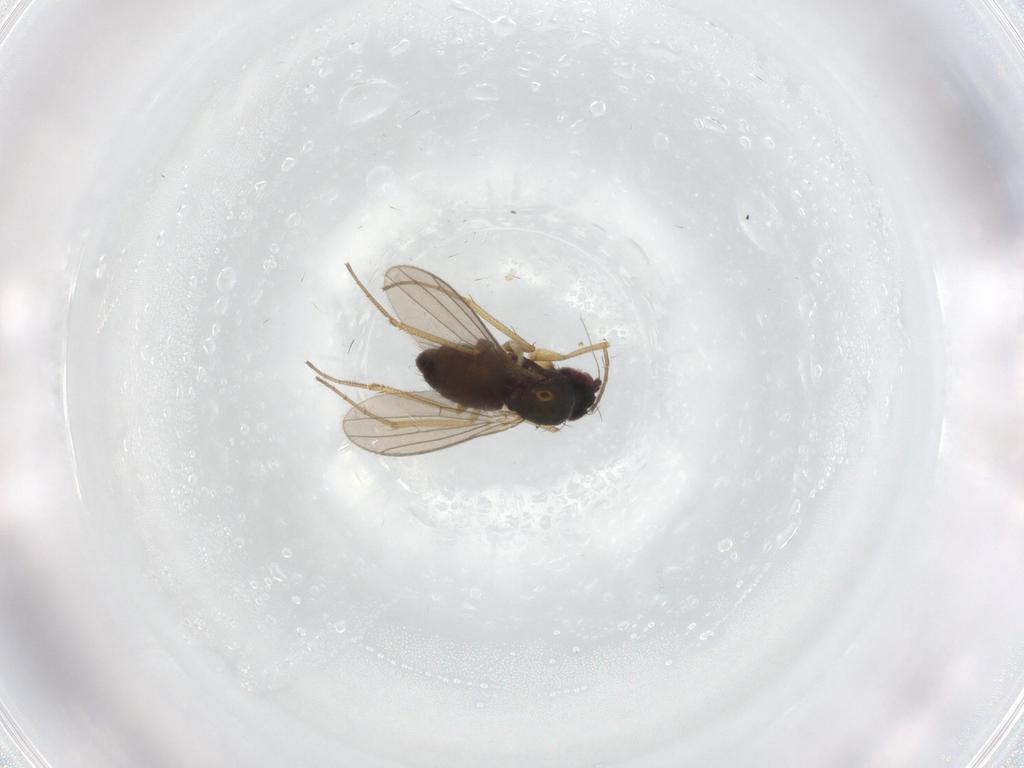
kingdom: Animalia
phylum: Arthropoda
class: Insecta
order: Diptera
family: Dolichopodidae
